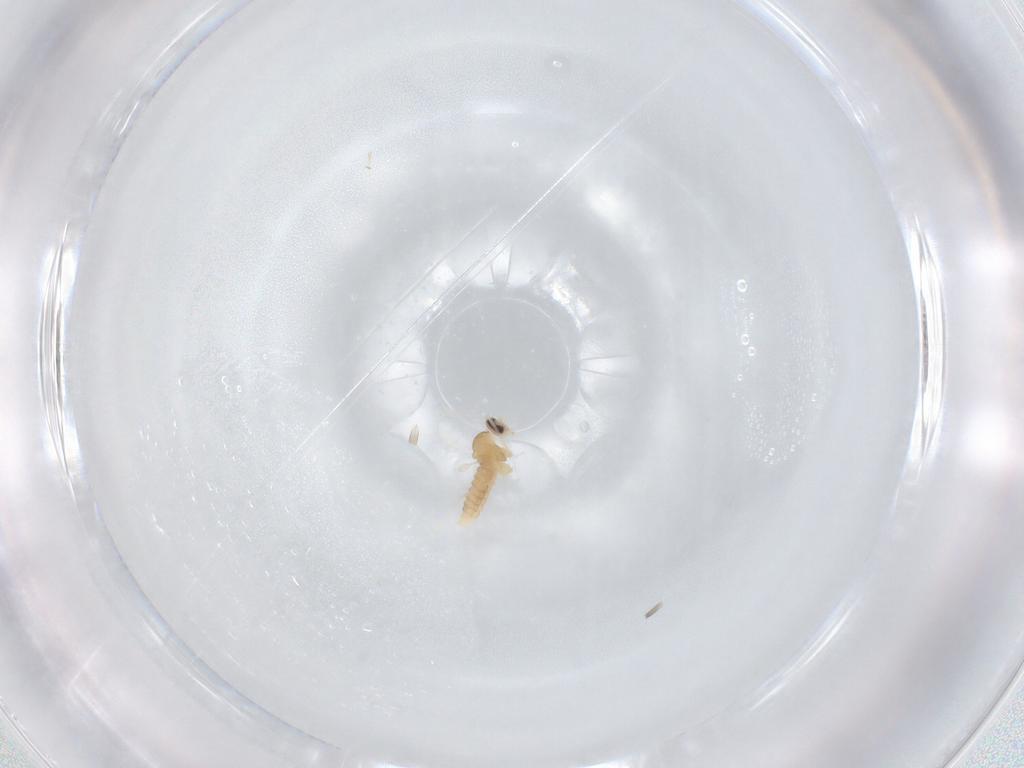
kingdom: Animalia
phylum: Arthropoda
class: Insecta
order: Diptera
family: Cecidomyiidae
